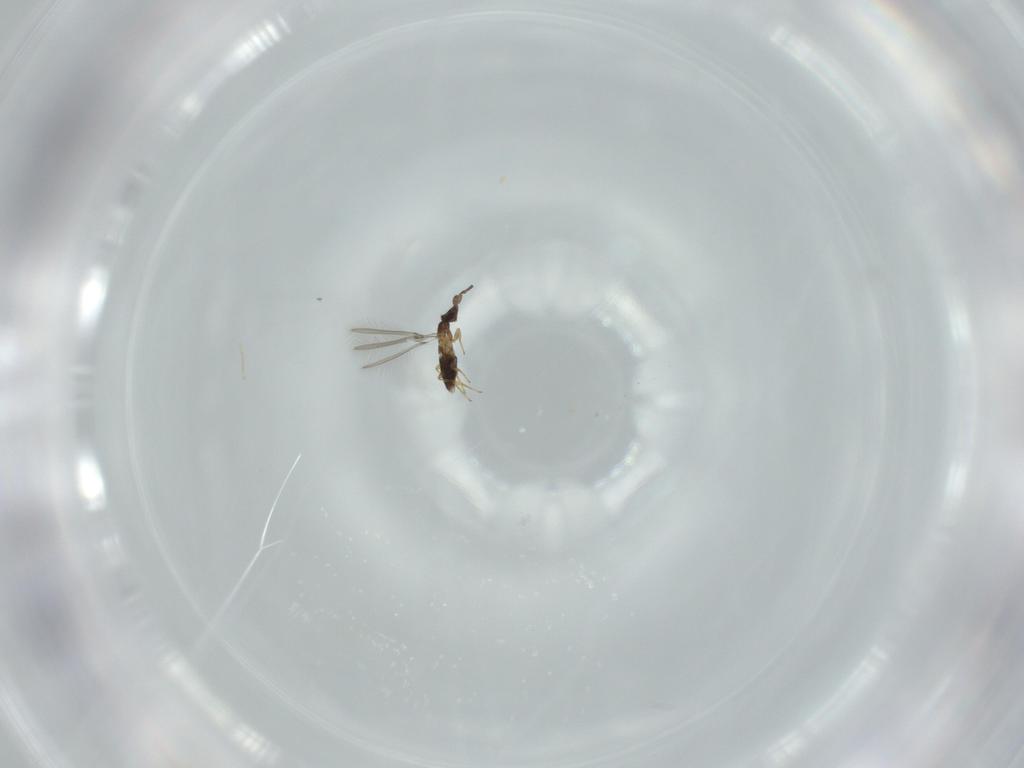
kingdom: Animalia
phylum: Arthropoda
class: Insecta
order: Hymenoptera
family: Mymaridae
